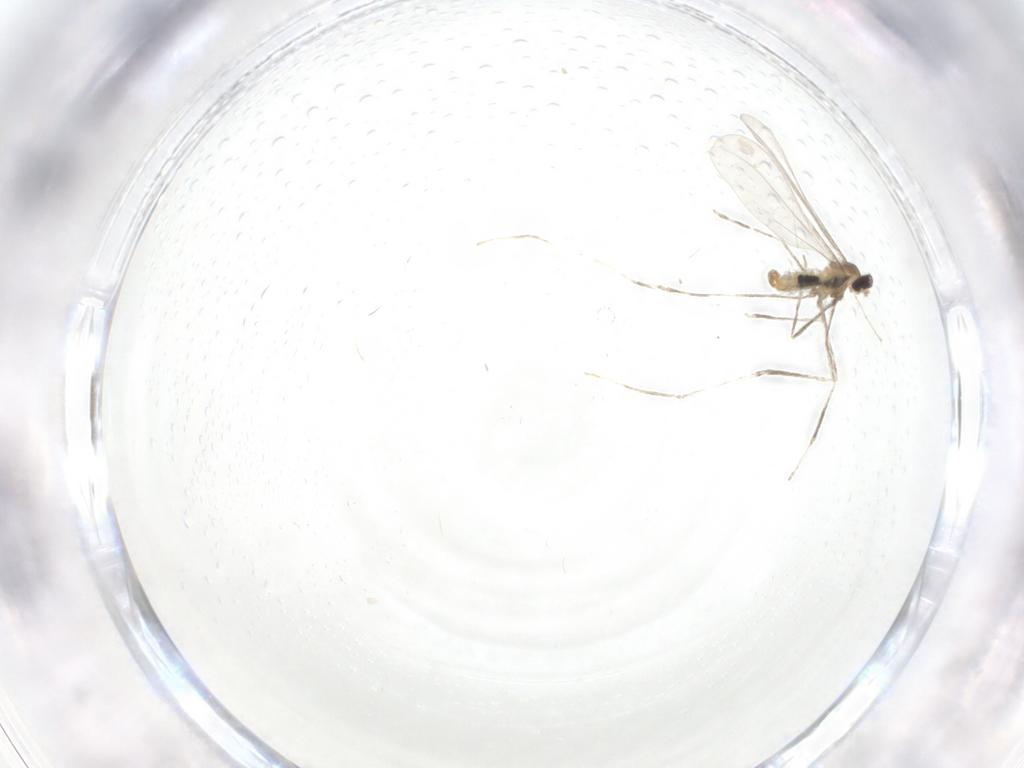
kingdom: Animalia
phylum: Arthropoda
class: Insecta
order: Diptera
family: Cecidomyiidae
